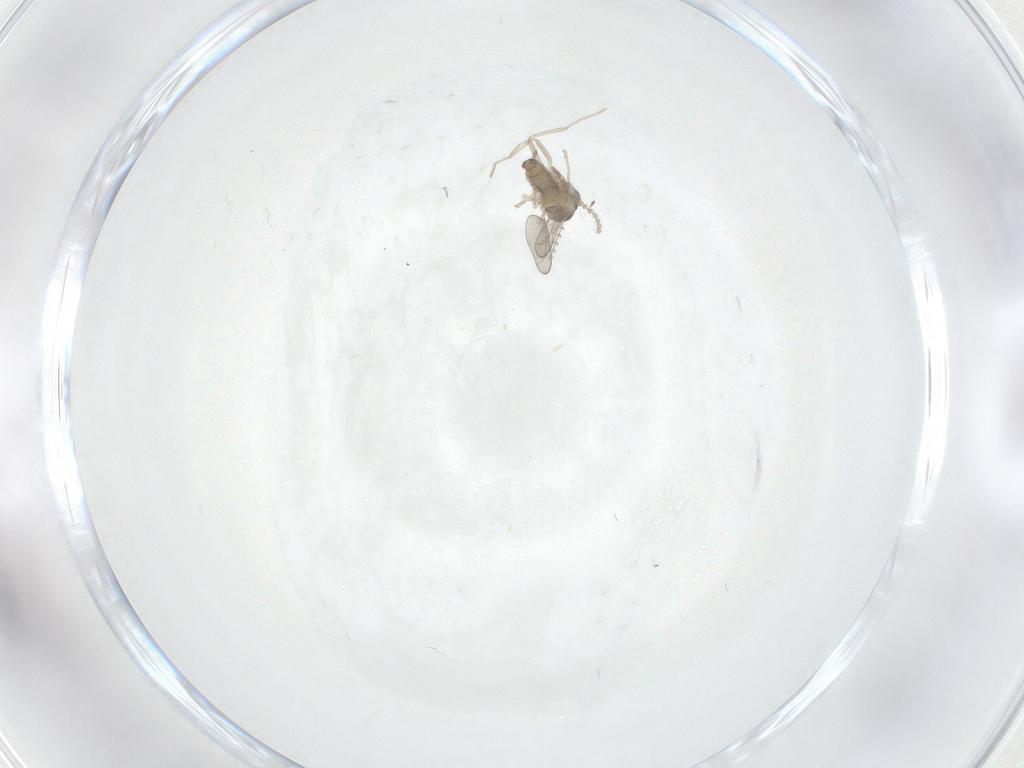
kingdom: Animalia
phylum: Arthropoda
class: Insecta
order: Diptera
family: Cecidomyiidae
